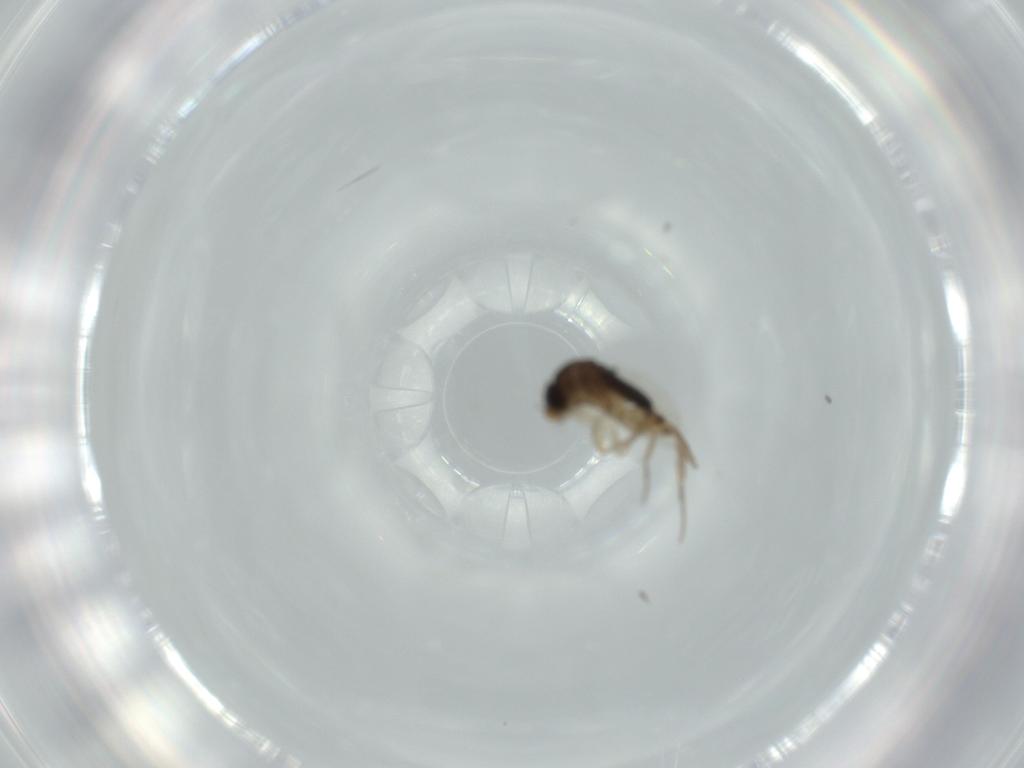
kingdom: Animalia
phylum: Arthropoda
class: Insecta
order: Diptera
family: Phoridae
